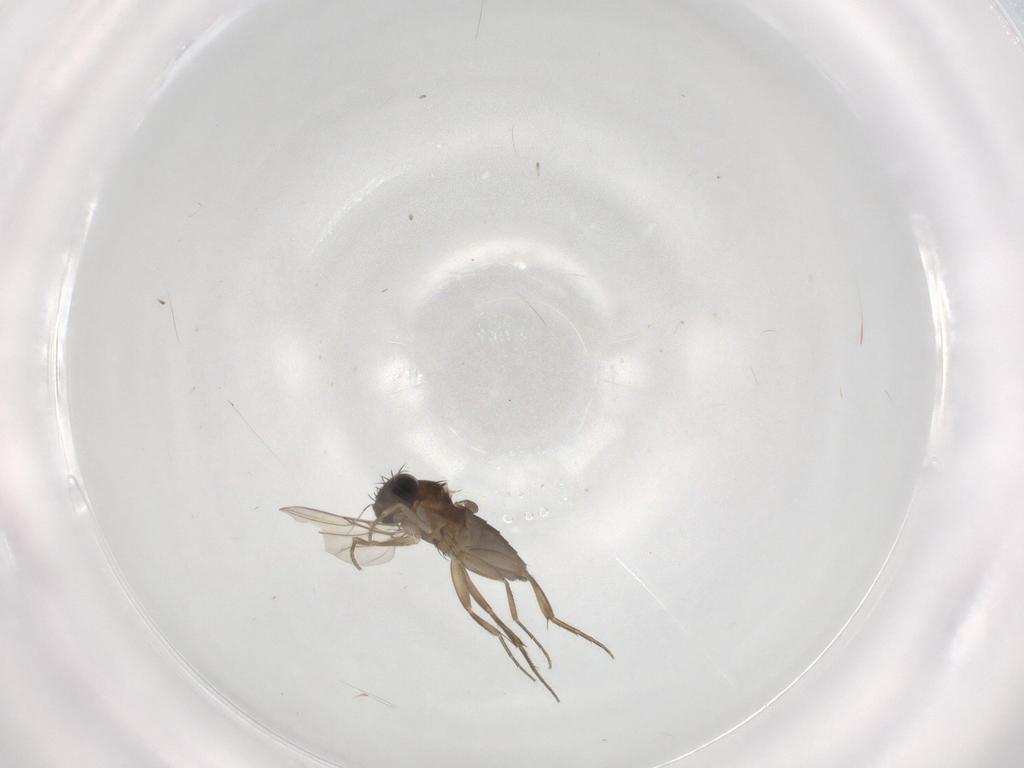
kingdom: Animalia
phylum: Arthropoda
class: Insecta
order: Diptera
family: Phoridae
